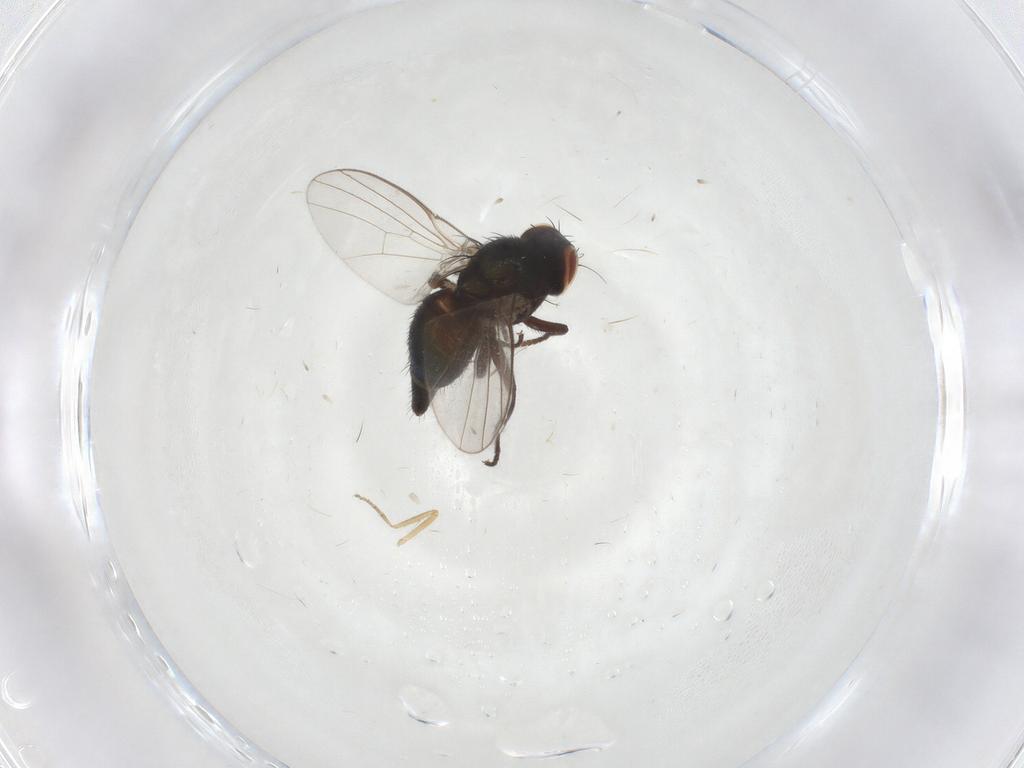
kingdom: Animalia
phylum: Arthropoda
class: Insecta
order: Diptera
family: Agromyzidae
